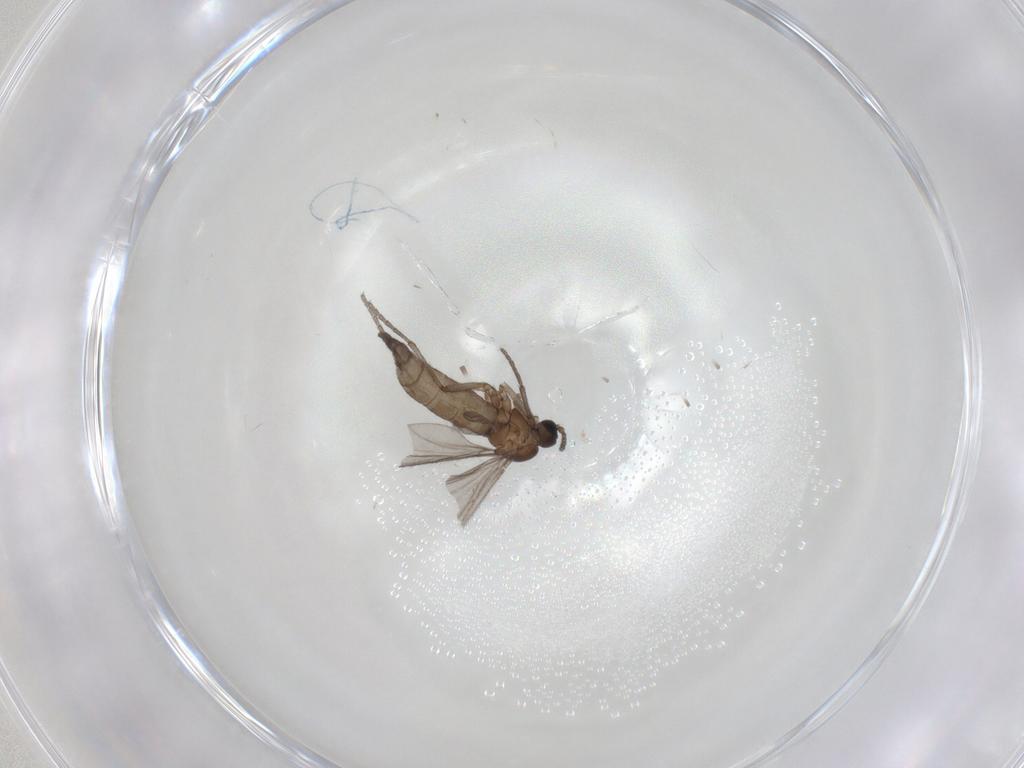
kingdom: Animalia
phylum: Arthropoda
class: Insecta
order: Diptera
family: Sciaridae
